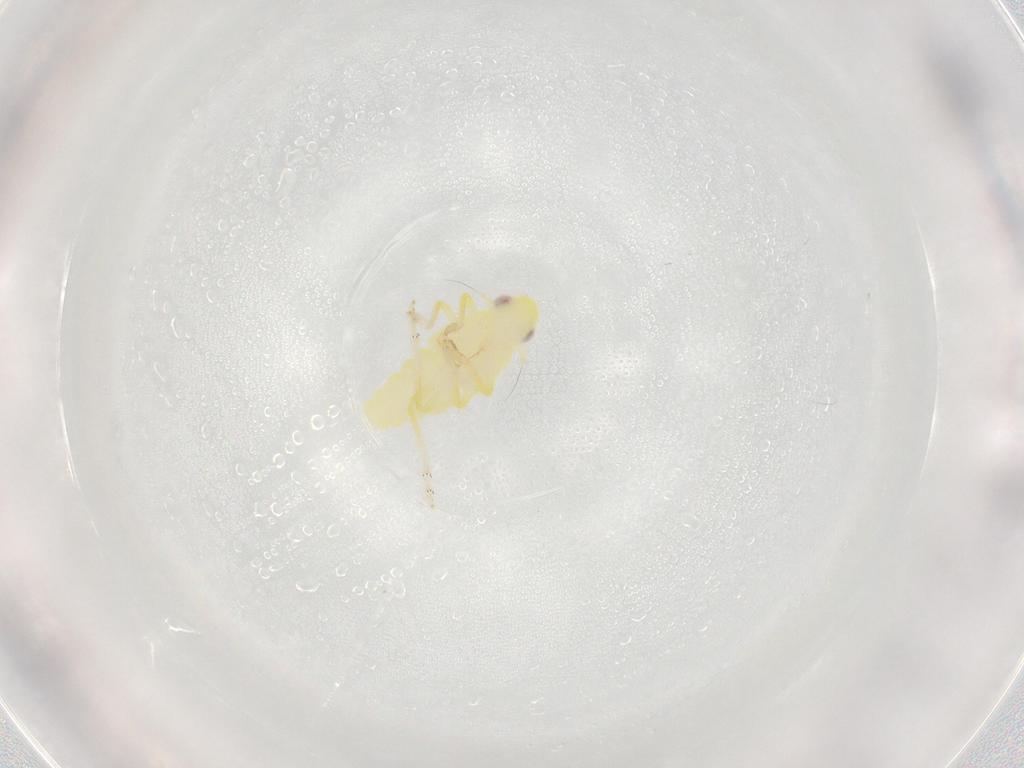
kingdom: Animalia
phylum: Arthropoda
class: Insecta
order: Hemiptera
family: Tropiduchidae
